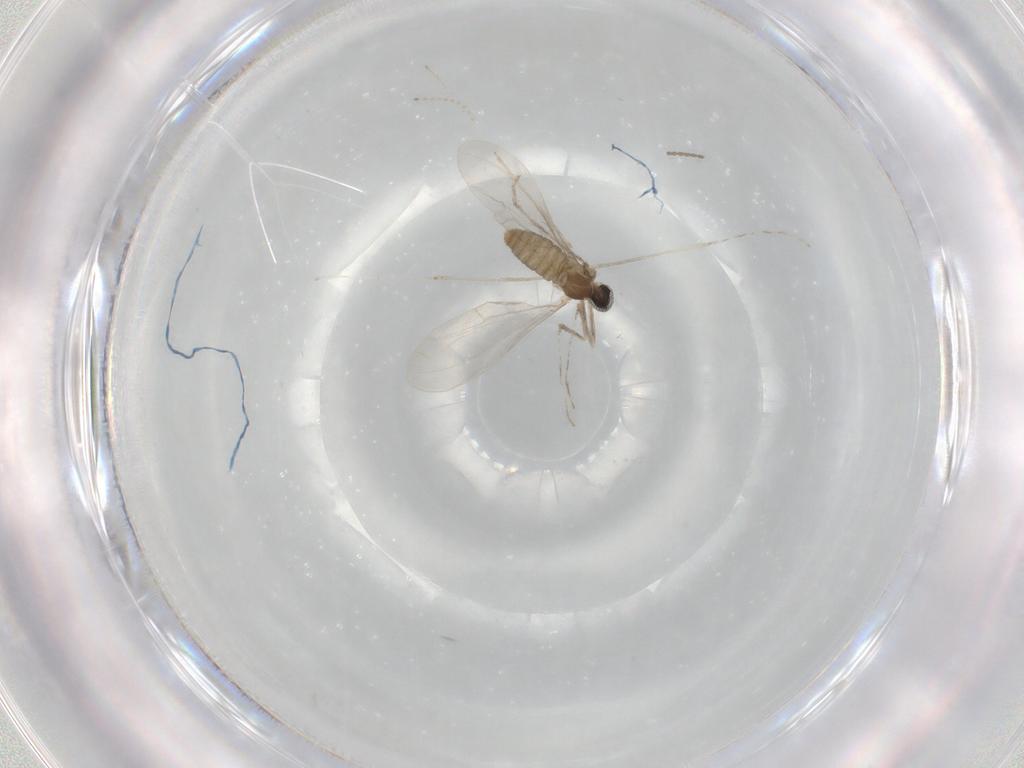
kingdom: Animalia
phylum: Arthropoda
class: Insecta
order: Diptera
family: Cecidomyiidae
